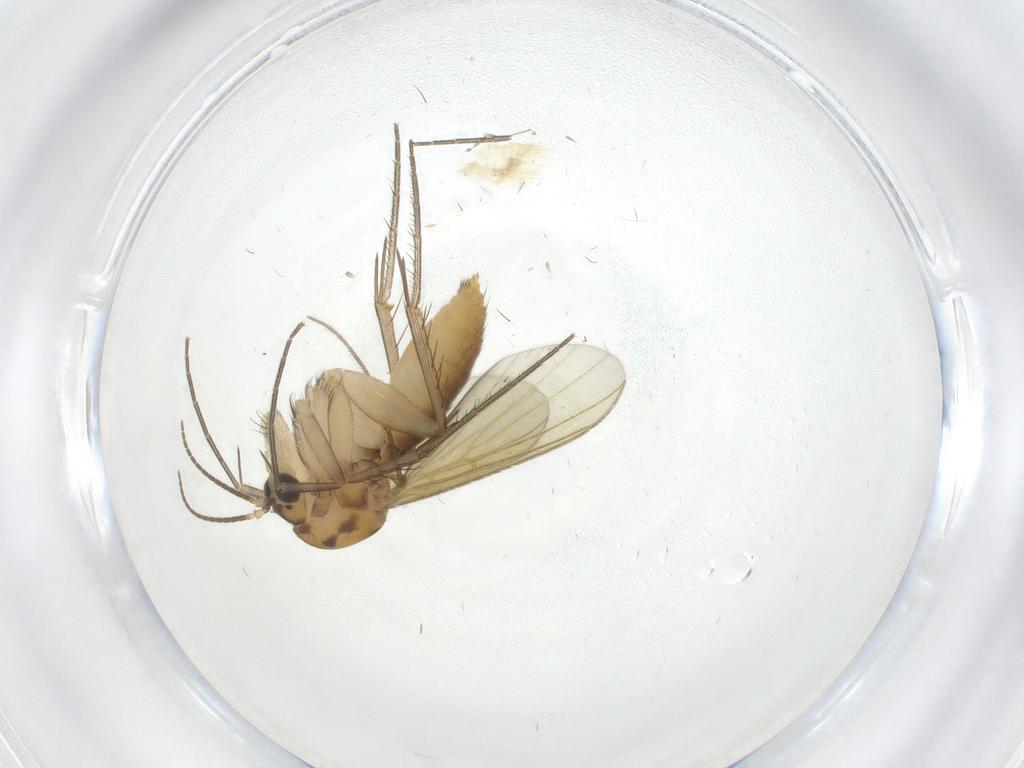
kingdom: Animalia
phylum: Arthropoda
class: Insecta
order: Diptera
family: Mycetophilidae
